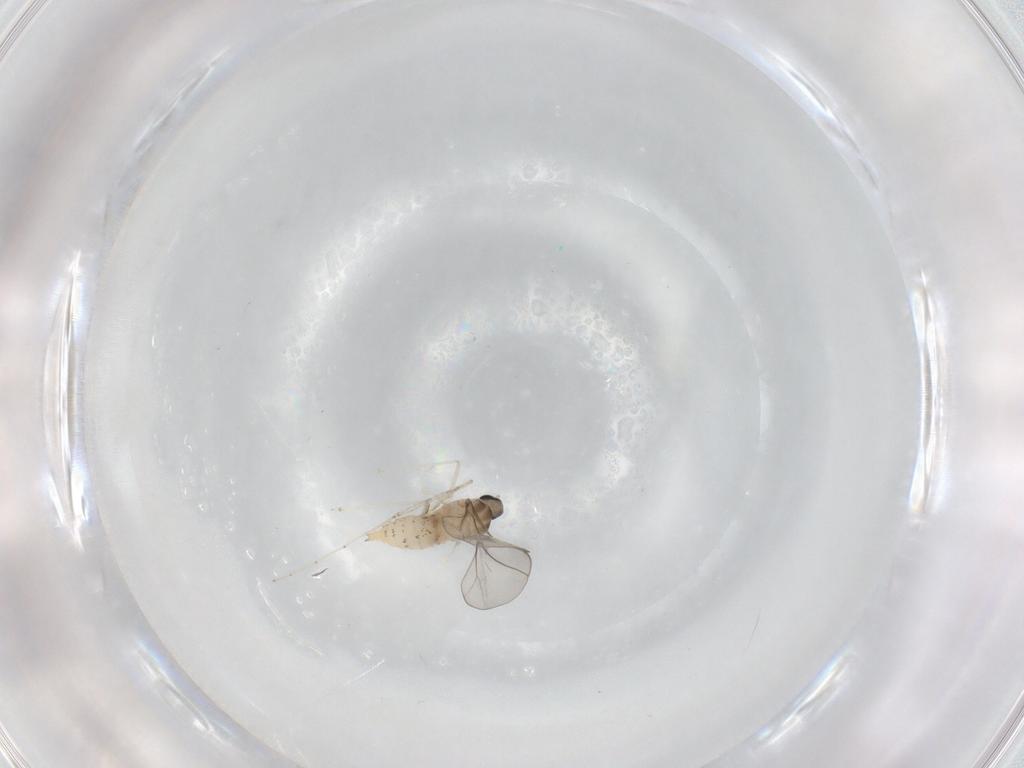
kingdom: Animalia
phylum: Arthropoda
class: Insecta
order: Diptera
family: Cecidomyiidae
